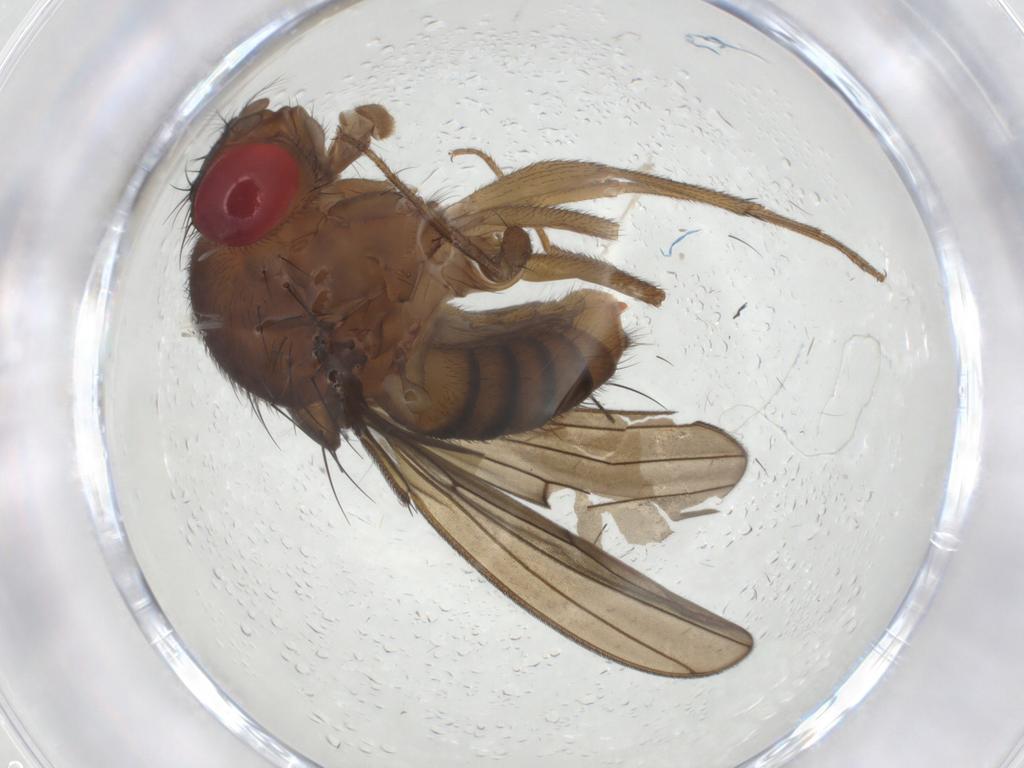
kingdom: Animalia
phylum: Arthropoda
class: Insecta
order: Diptera
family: Drosophilidae
